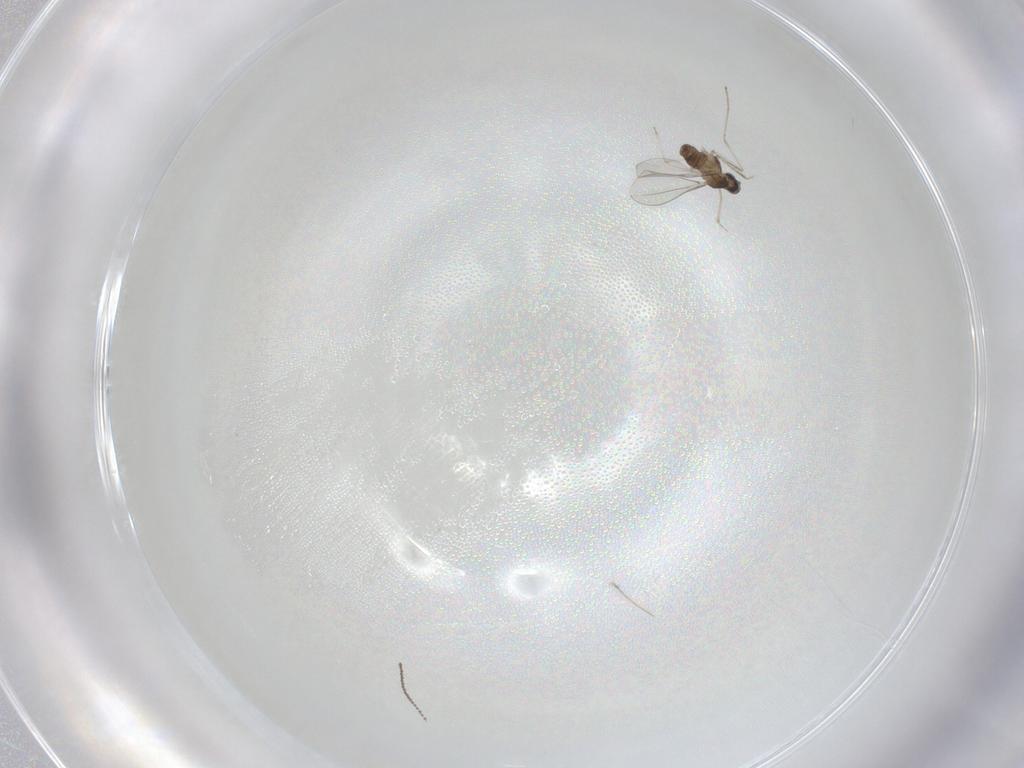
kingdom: Animalia
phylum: Arthropoda
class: Insecta
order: Diptera
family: Cecidomyiidae
